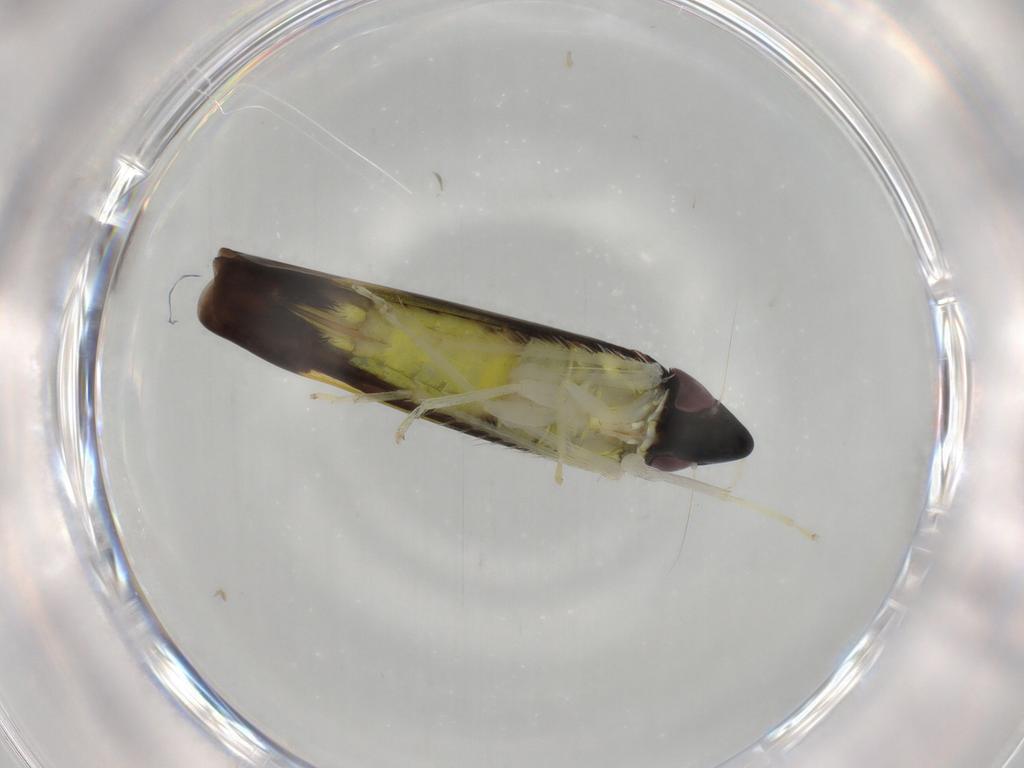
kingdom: Animalia
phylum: Arthropoda
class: Insecta
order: Hemiptera
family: Cicadellidae
